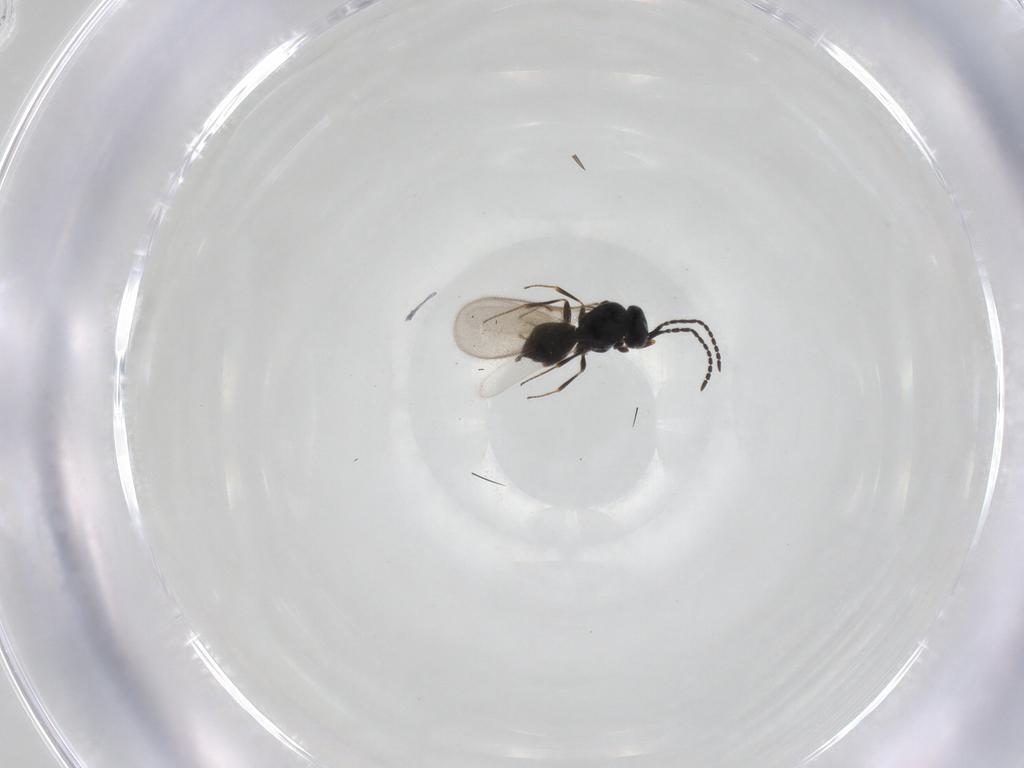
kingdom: Animalia
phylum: Arthropoda
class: Insecta
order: Hymenoptera
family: Scelionidae
